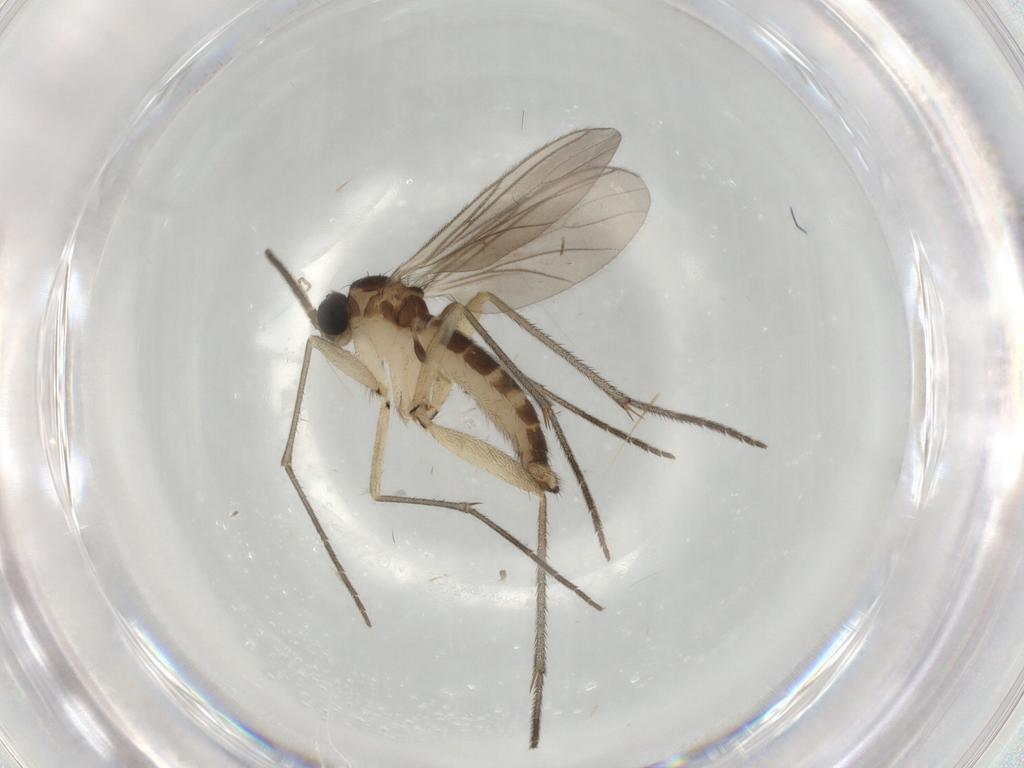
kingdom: Animalia
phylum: Arthropoda
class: Insecta
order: Diptera
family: Sciaridae
